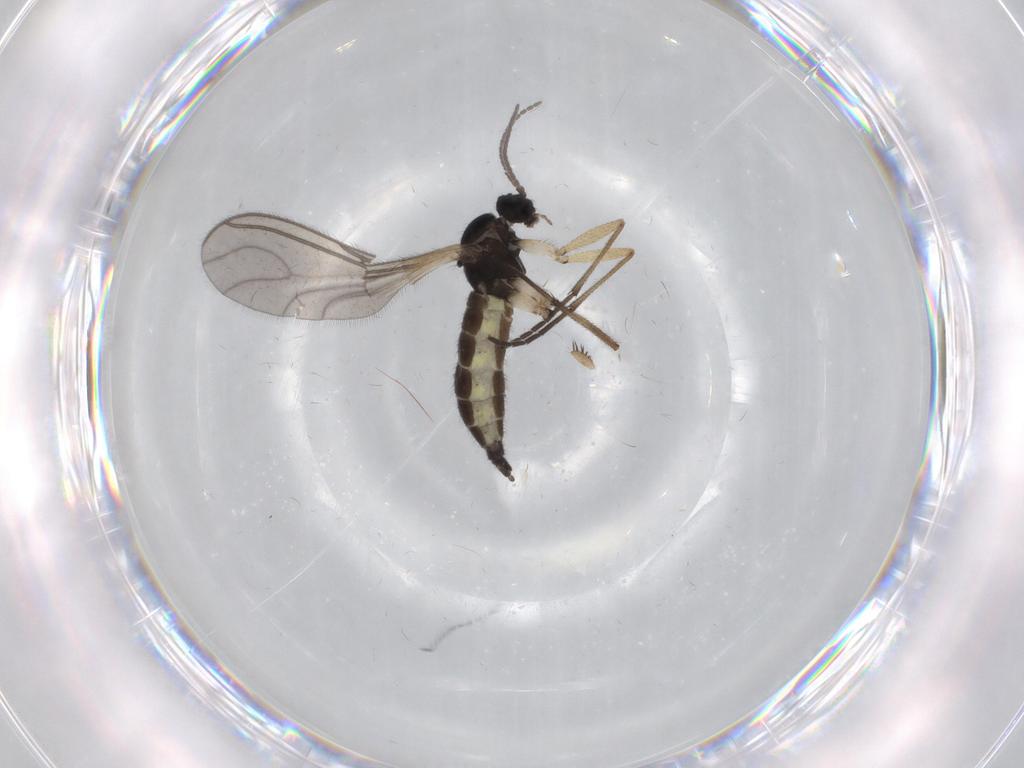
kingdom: Animalia
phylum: Arthropoda
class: Insecta
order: Diptera
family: Sciaridae
